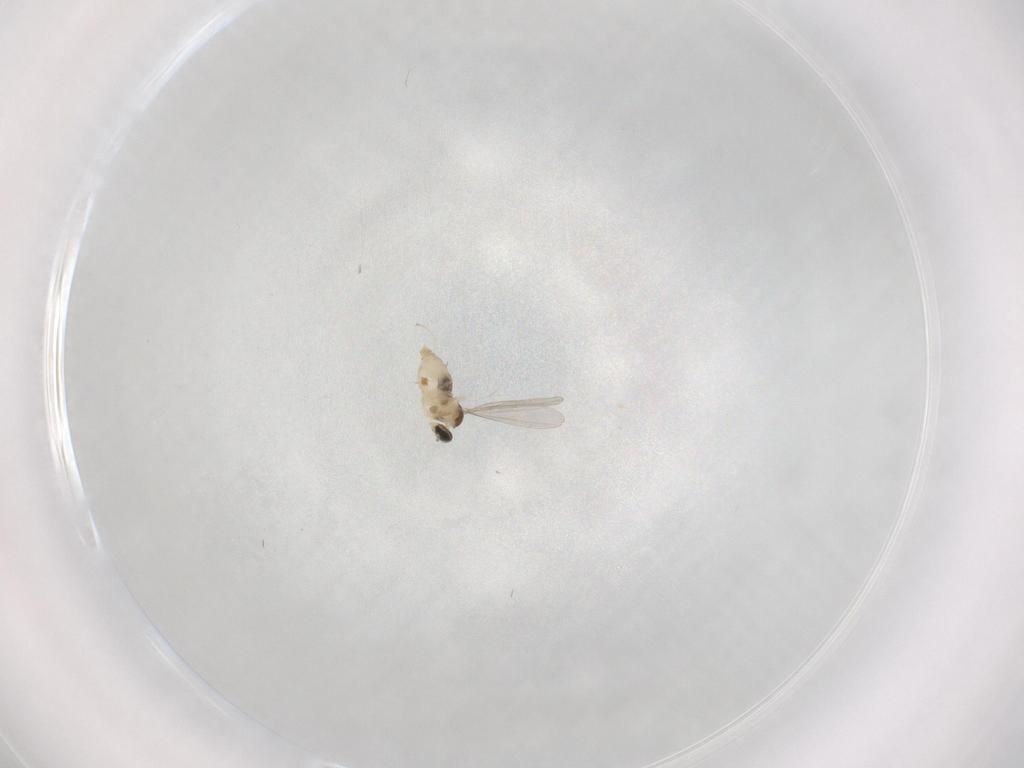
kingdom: Animalia
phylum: Arthropoda
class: Insecta
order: Diptera
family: Cecidomyiidae
